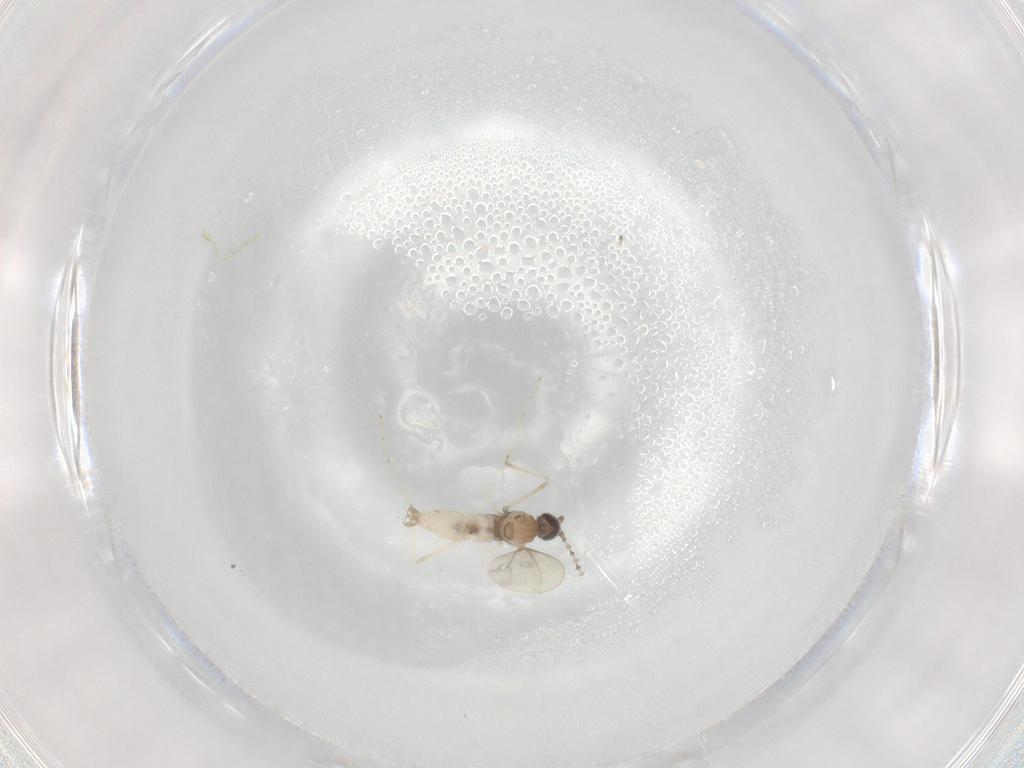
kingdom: Animalia
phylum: Arthropoda
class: Insecta
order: Diptera
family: Cecidomyiidae
